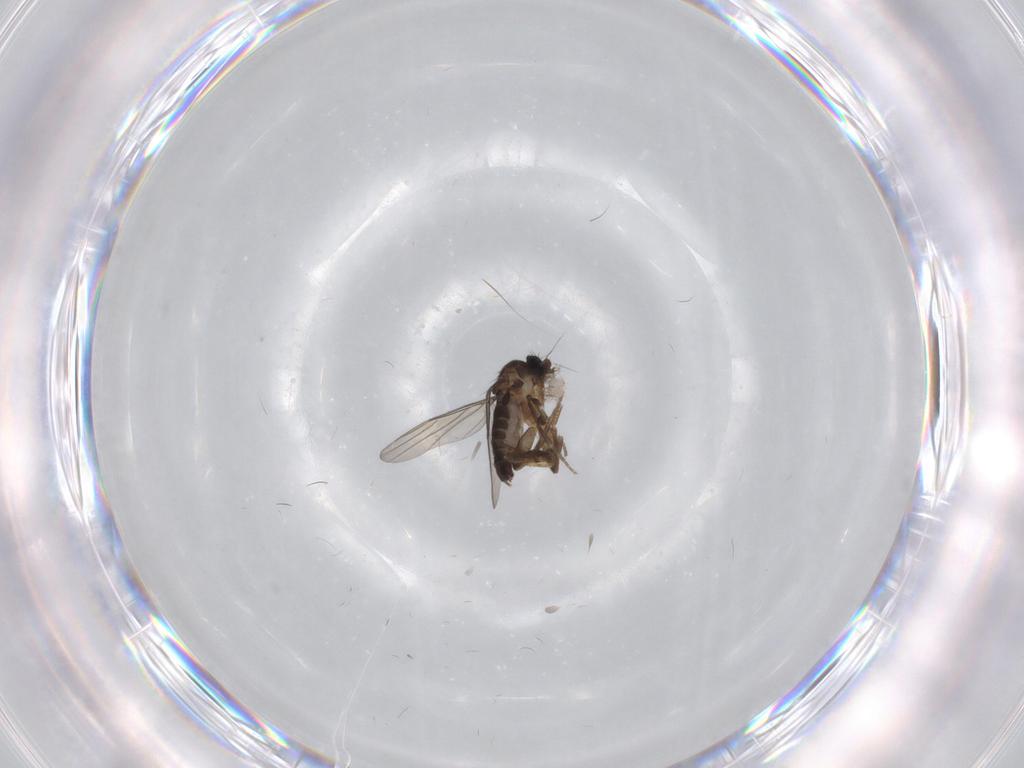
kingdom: Animalia
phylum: Arthropoda
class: Insecta
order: Diptera
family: Phoridae
